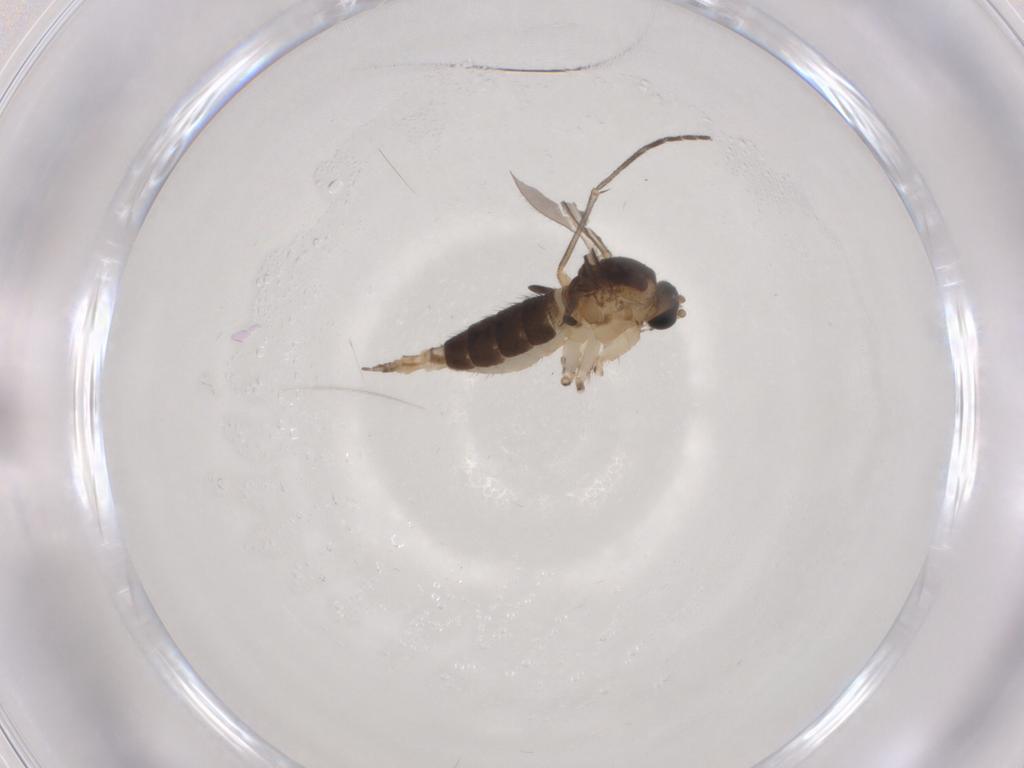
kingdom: Animalia
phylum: Arthropoda
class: Insecta
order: Diptera
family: Sciaridae
